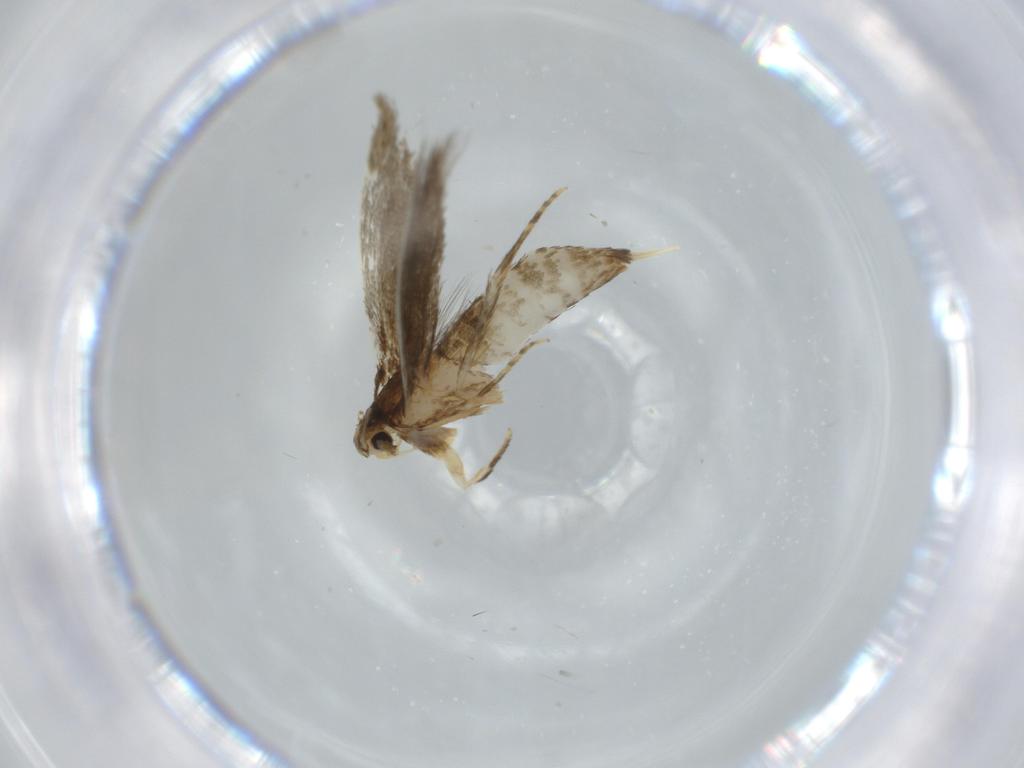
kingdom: Animalia
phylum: Arthropoda
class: Insecta
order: Lepidoptera
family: Tineidae
